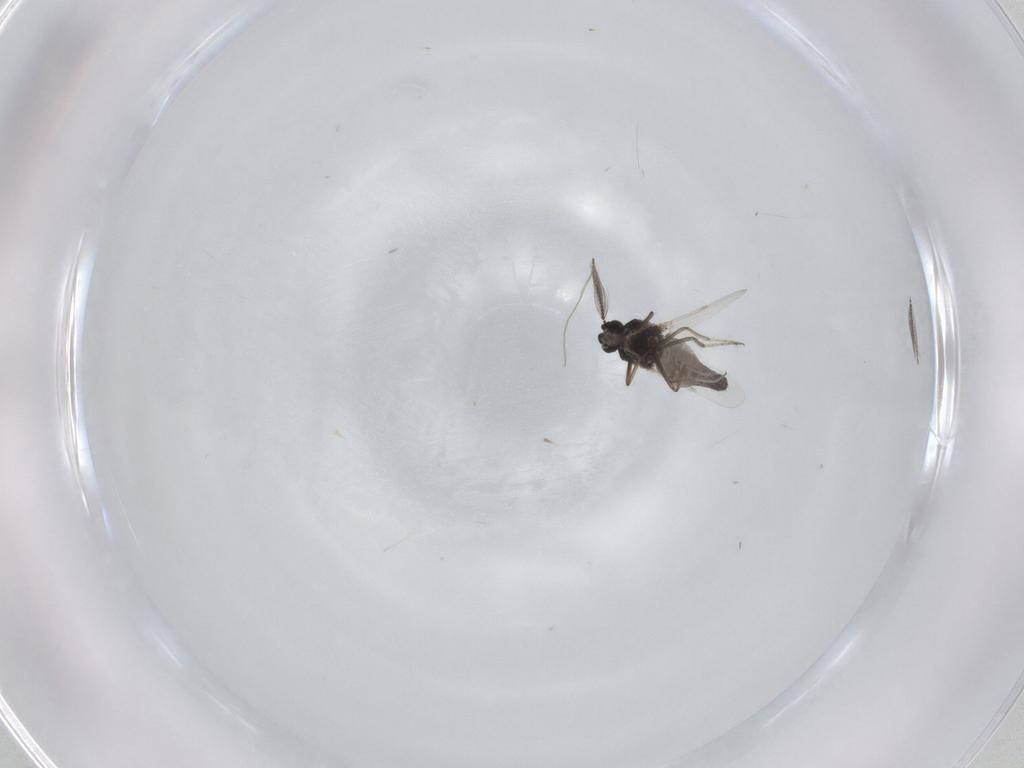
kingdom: Animalia
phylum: Arthropoda
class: Insecta
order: Diptera
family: Ceratopogonidae
